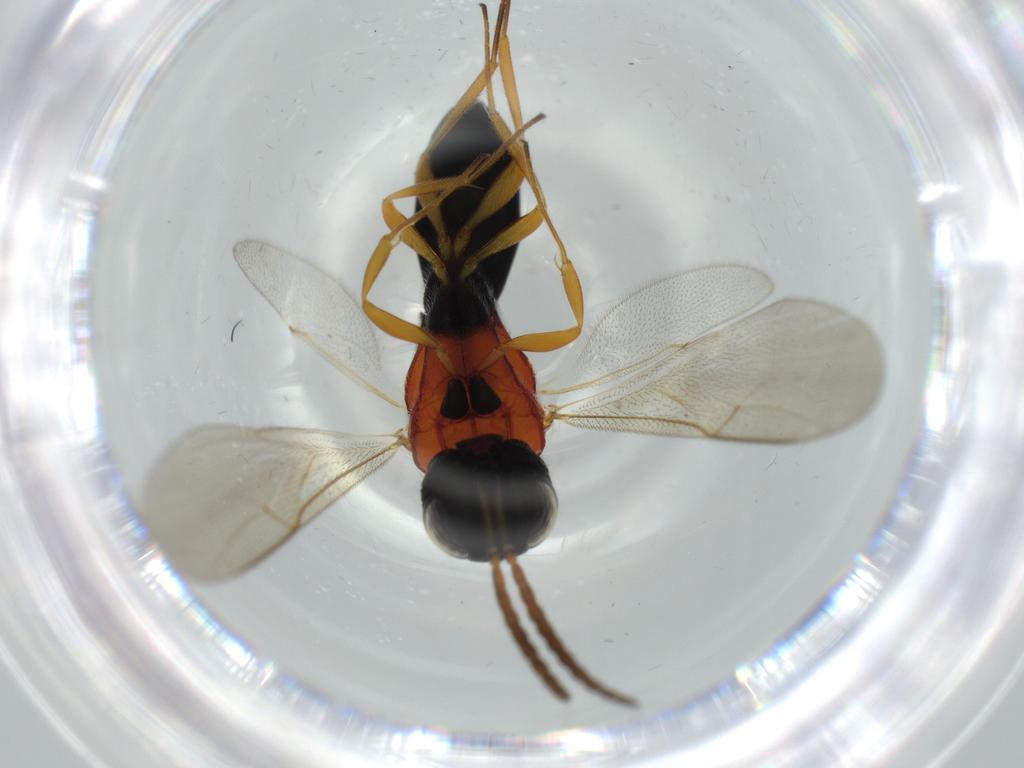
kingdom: Animalia
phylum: Arthropoda
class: Insecta
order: Hymenoptera
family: Scelionidae
